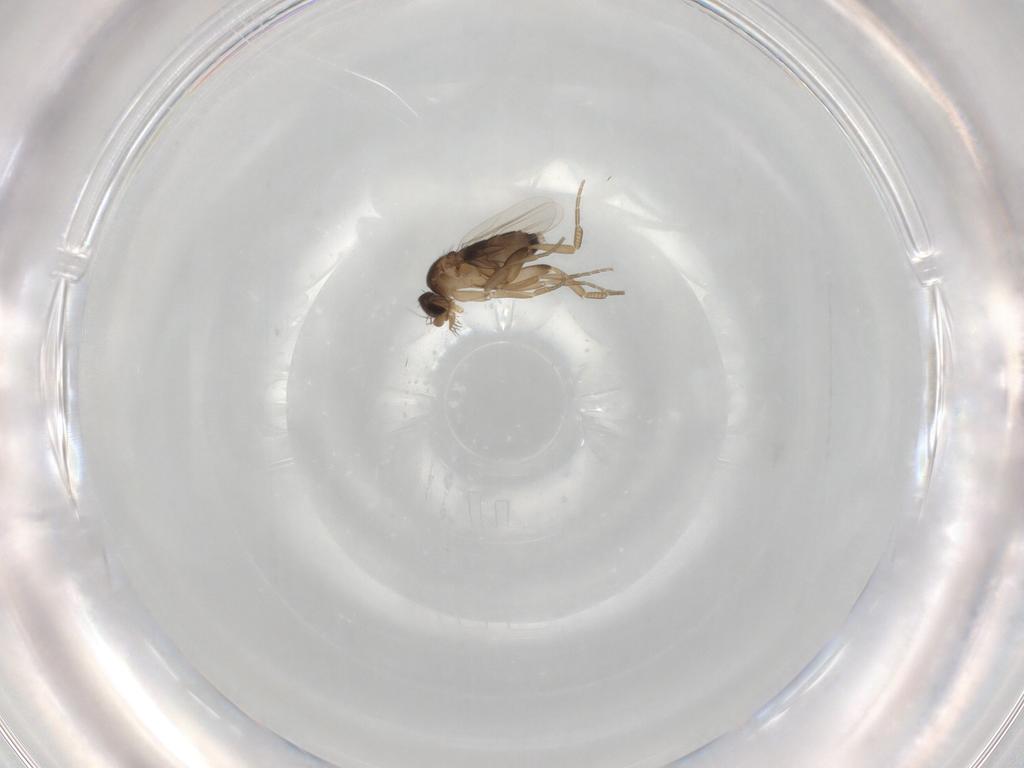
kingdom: Animalia
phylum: Arthropoda
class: Insecta
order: Diptera
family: Phoridae
